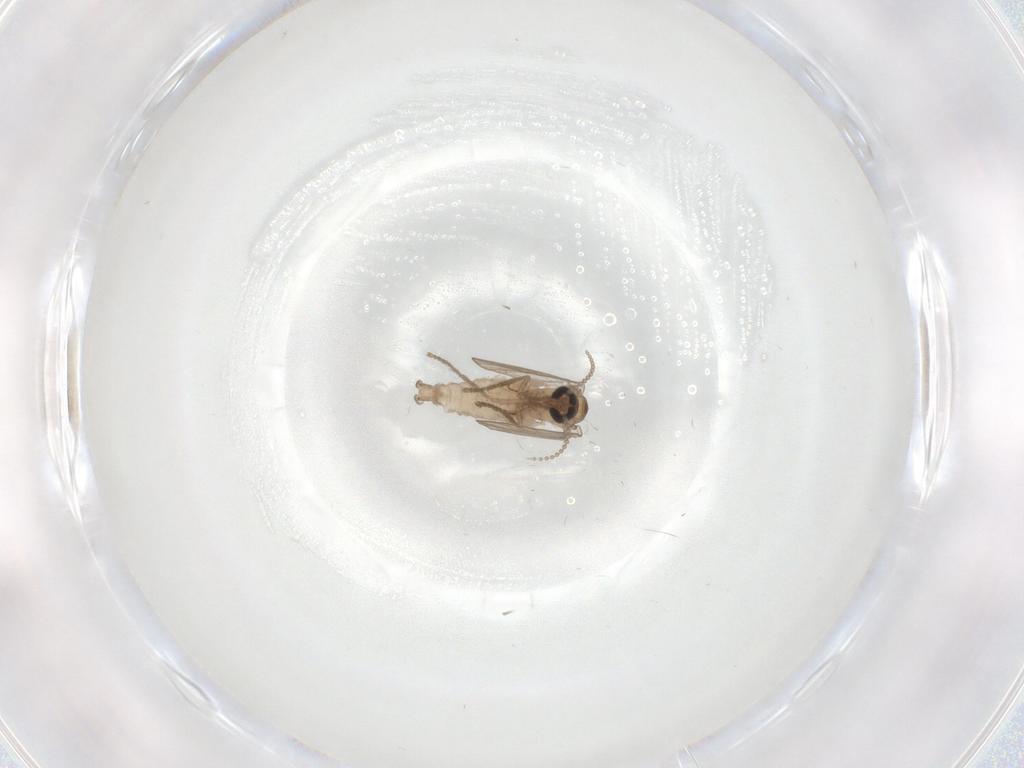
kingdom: Animalia
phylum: Arthropoda
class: Insecta
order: Diptera
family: Psychodidae
